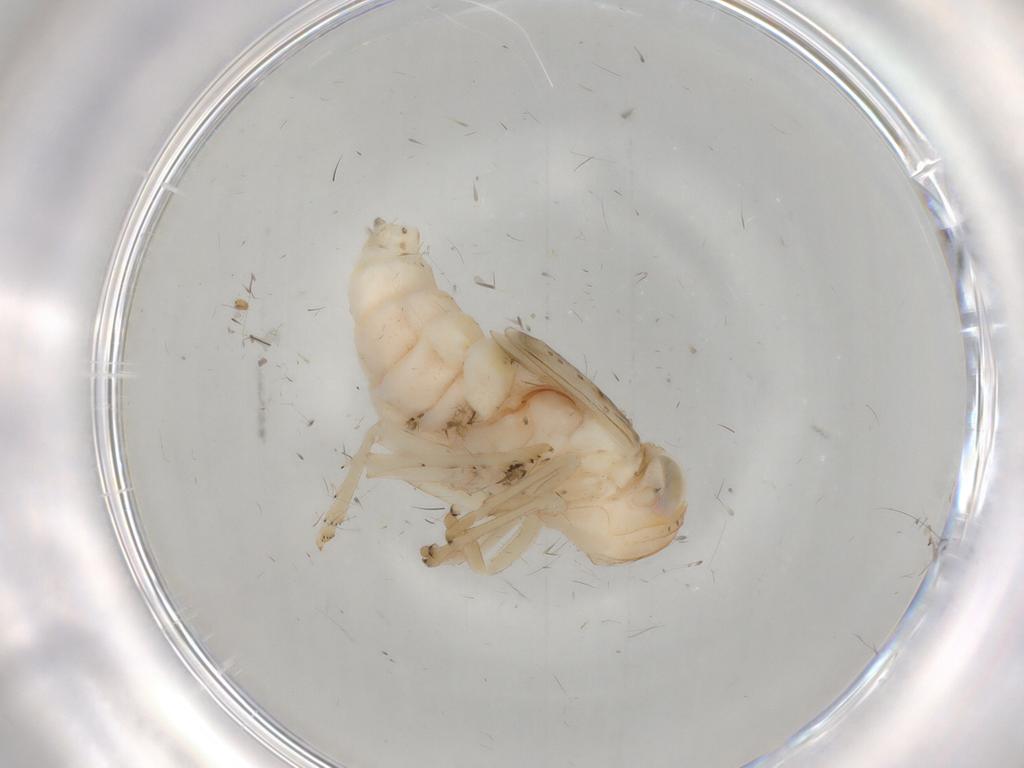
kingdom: Animalia
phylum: Arthropoda
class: Insecta
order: Hemiptera
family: Nogodinidae
